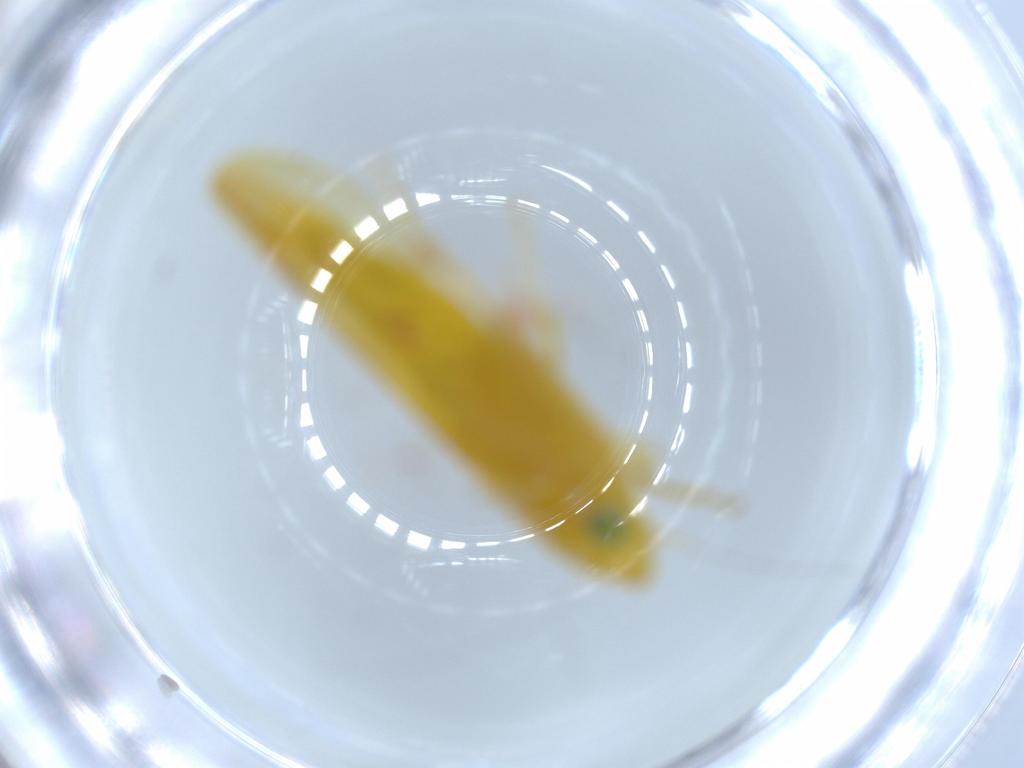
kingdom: Animalia
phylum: Arthropoda
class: Insecta
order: Hemiptera
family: Cicadellidae
